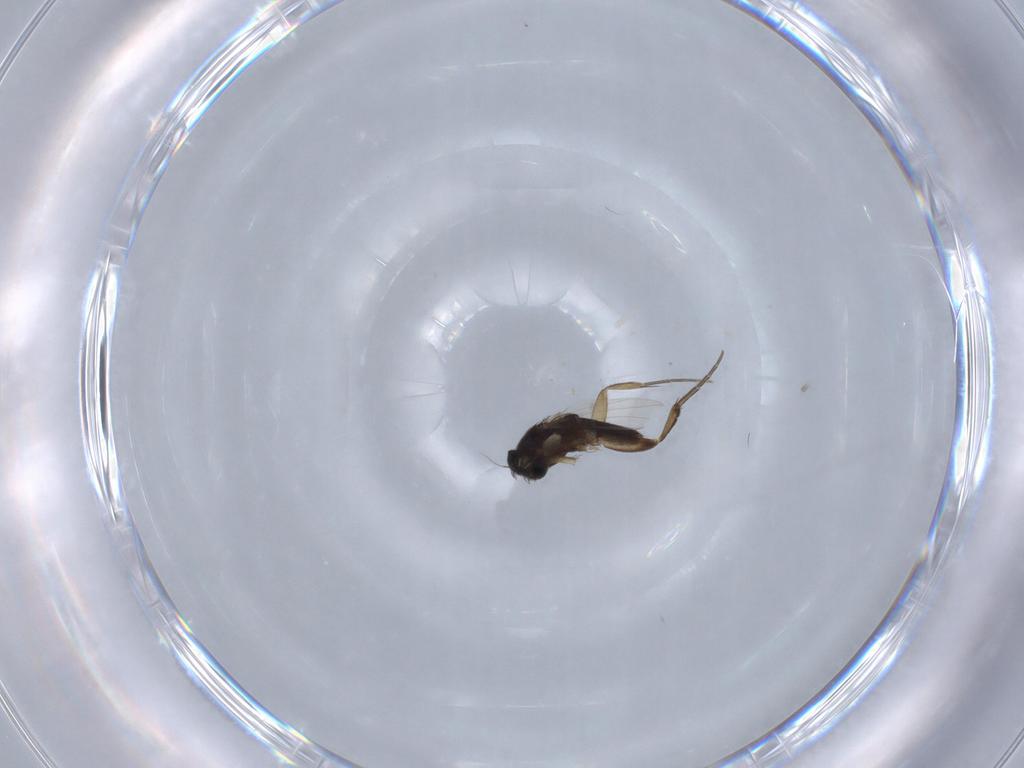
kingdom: Animalia
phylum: Arthropoda
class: Insecta
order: Diptera
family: Phoridae
